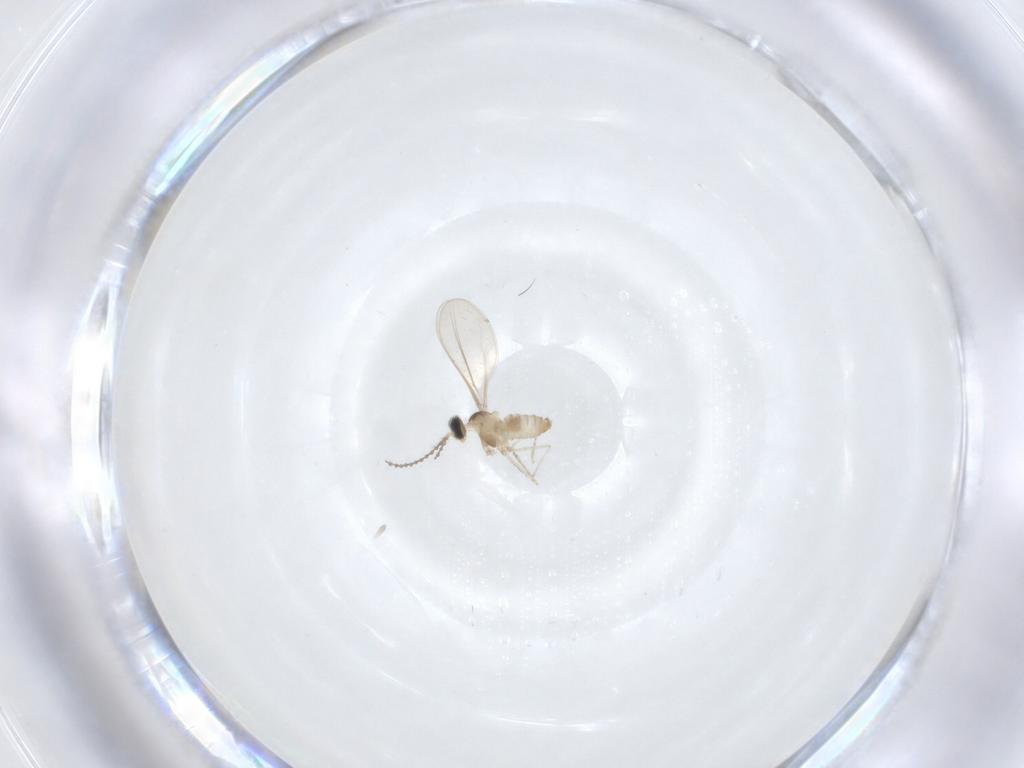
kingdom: Animalia
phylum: Arthropoda
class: Insecta
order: Diptera
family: Cecidomyiidae
